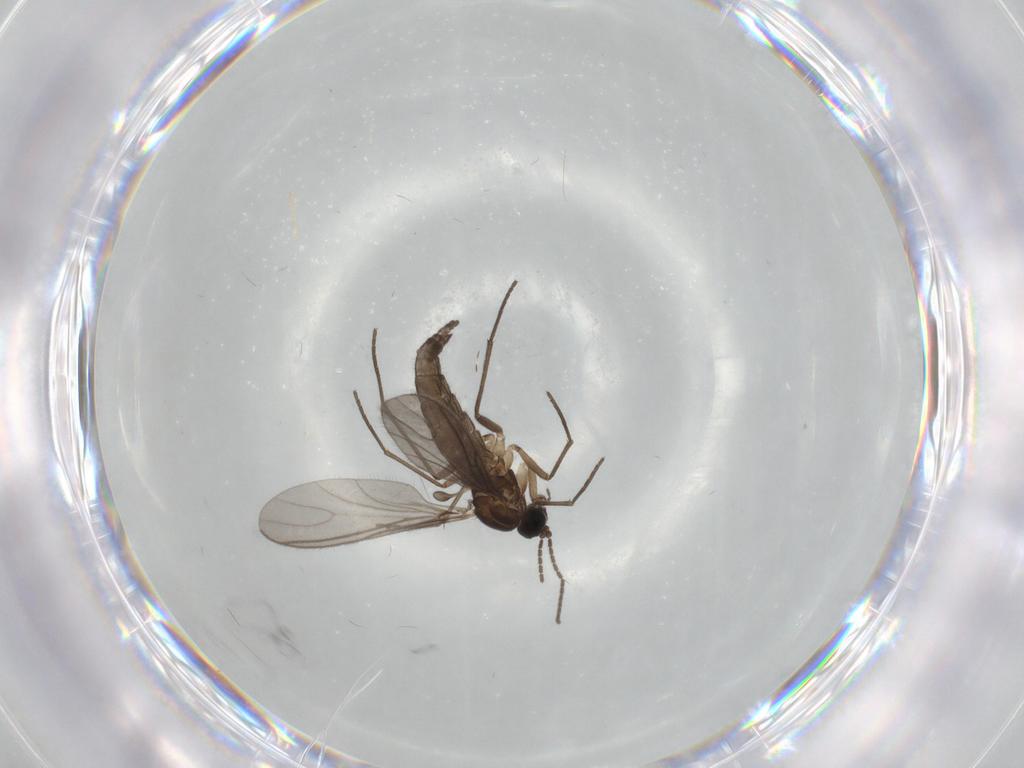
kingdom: Animalia
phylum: Arthropoda
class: Insecta
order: Diptera
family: Sciaridae
